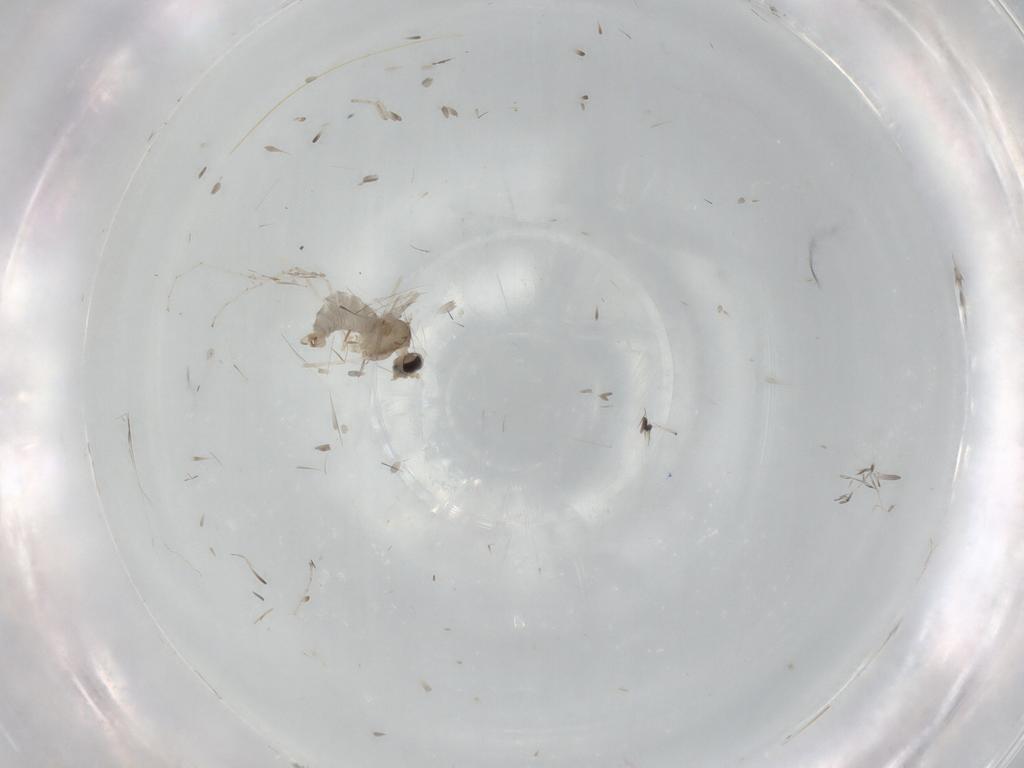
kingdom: Animalia
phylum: Arthropoda
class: Insecta
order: Diptera
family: Cecidomyiidae
